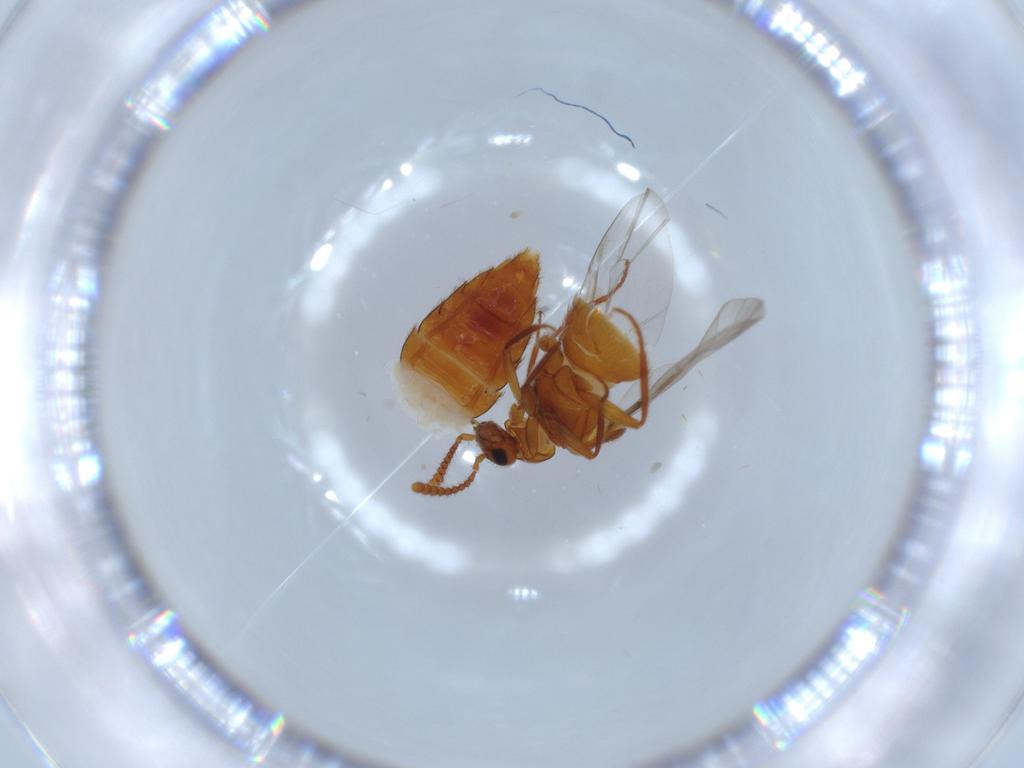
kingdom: Animalia
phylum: Arthropoda
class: Insecta
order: Coleoptera
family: Staphylinidae
